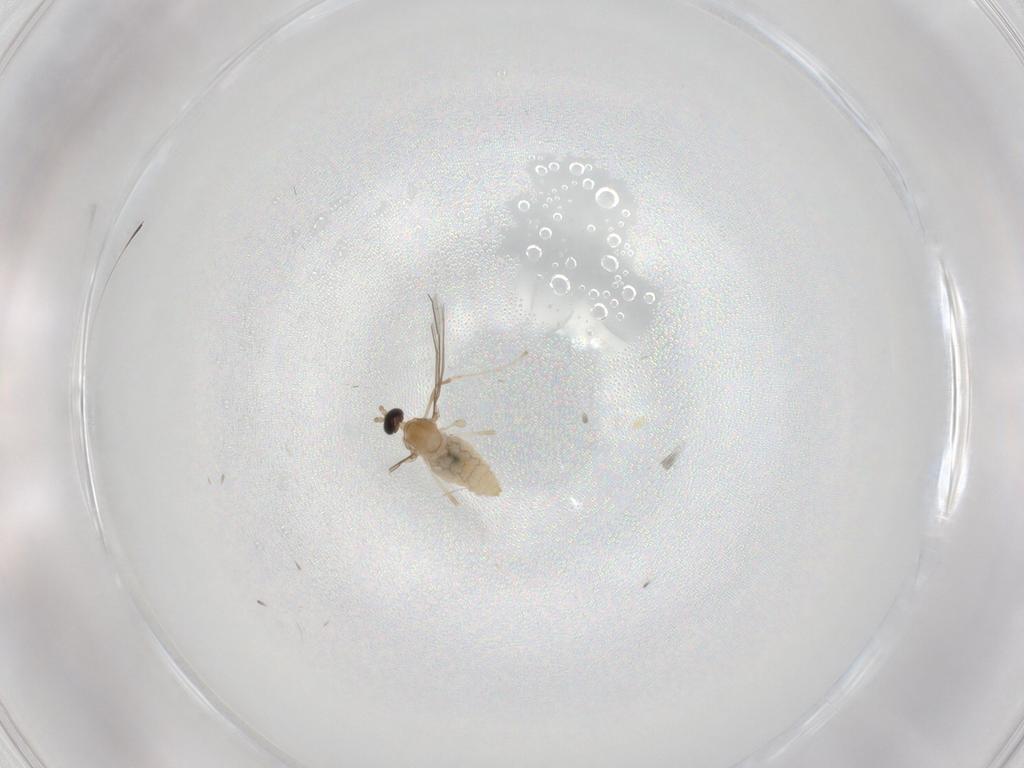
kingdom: Animalia
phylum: Arthropoda
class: Insecta
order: Diptera
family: Cecidomyiidae
